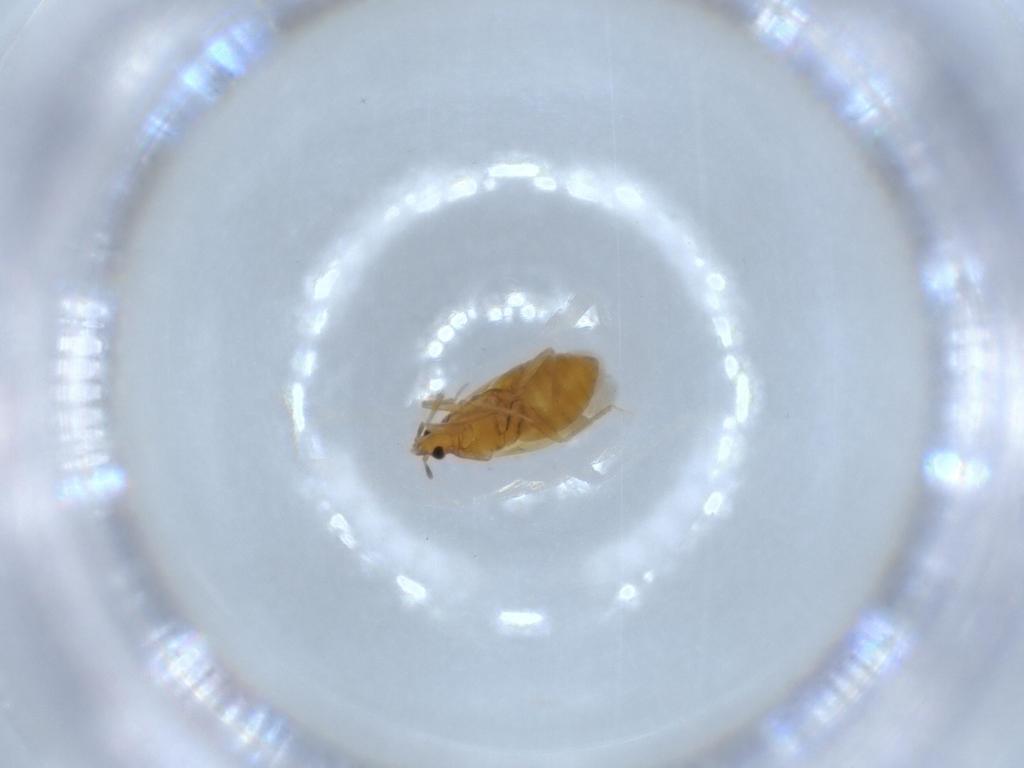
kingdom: Animalia
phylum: Arthropoda
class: Insecta
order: Hemiptera
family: Lasiochilidae
